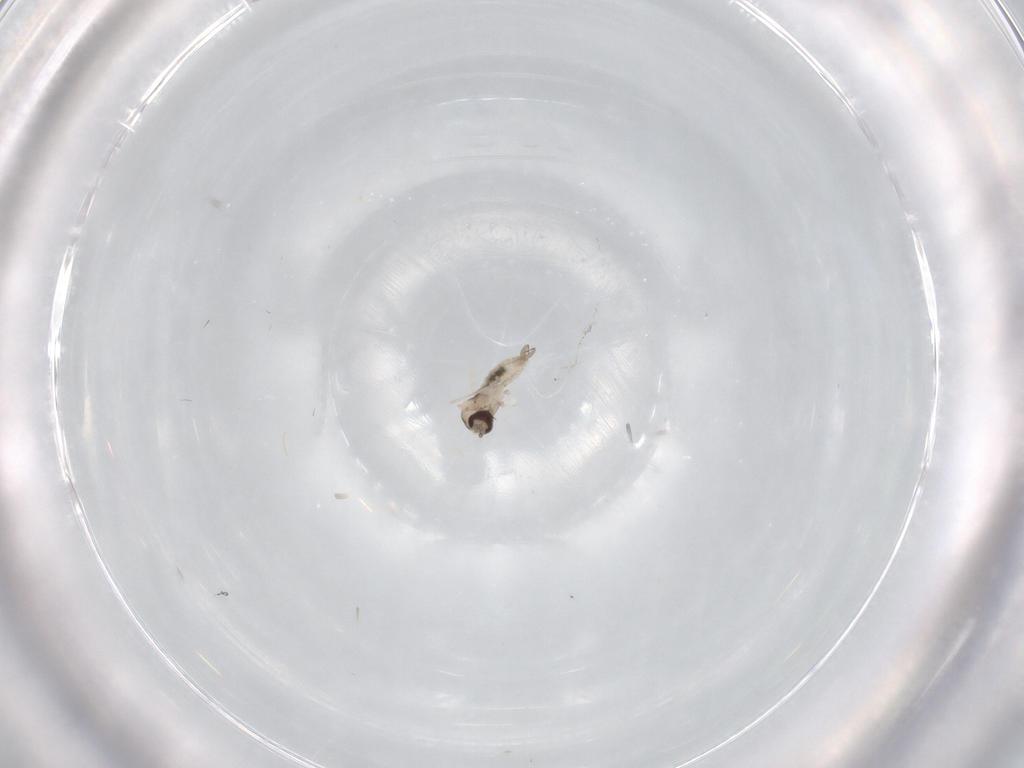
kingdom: Animalia
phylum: Arthropoda
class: Insecta
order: Diptera
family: Cecidomyiidae
